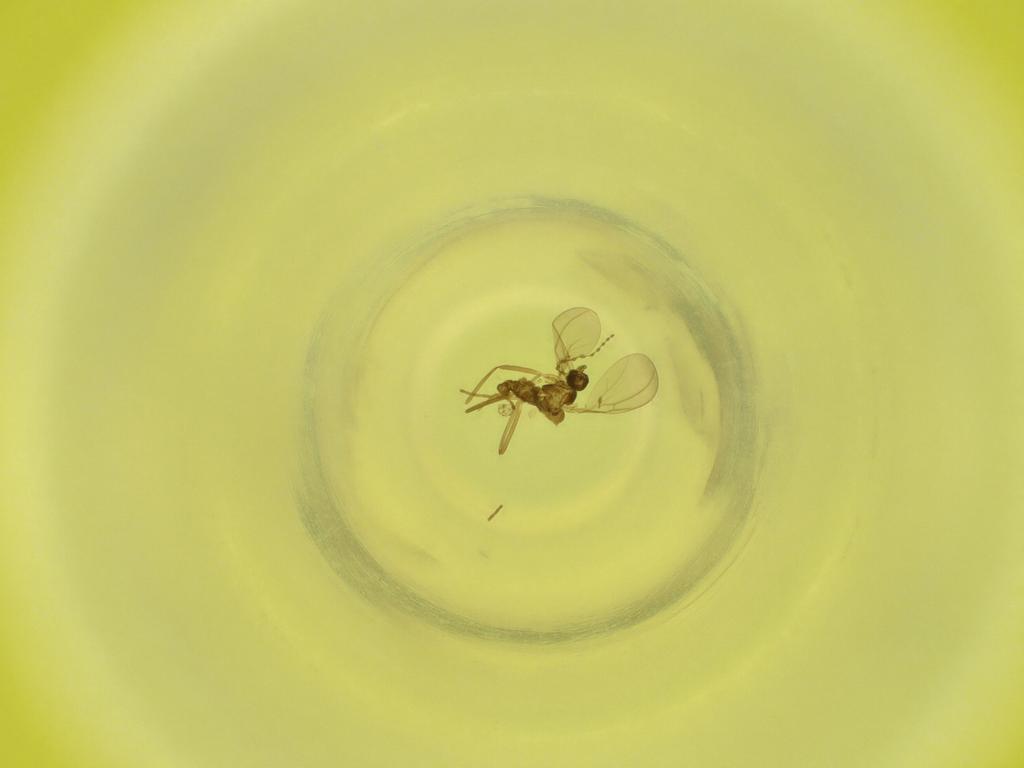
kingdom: Animalia
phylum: Arthropoda
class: Insecta
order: Diptera
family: Cecidomyiidae
